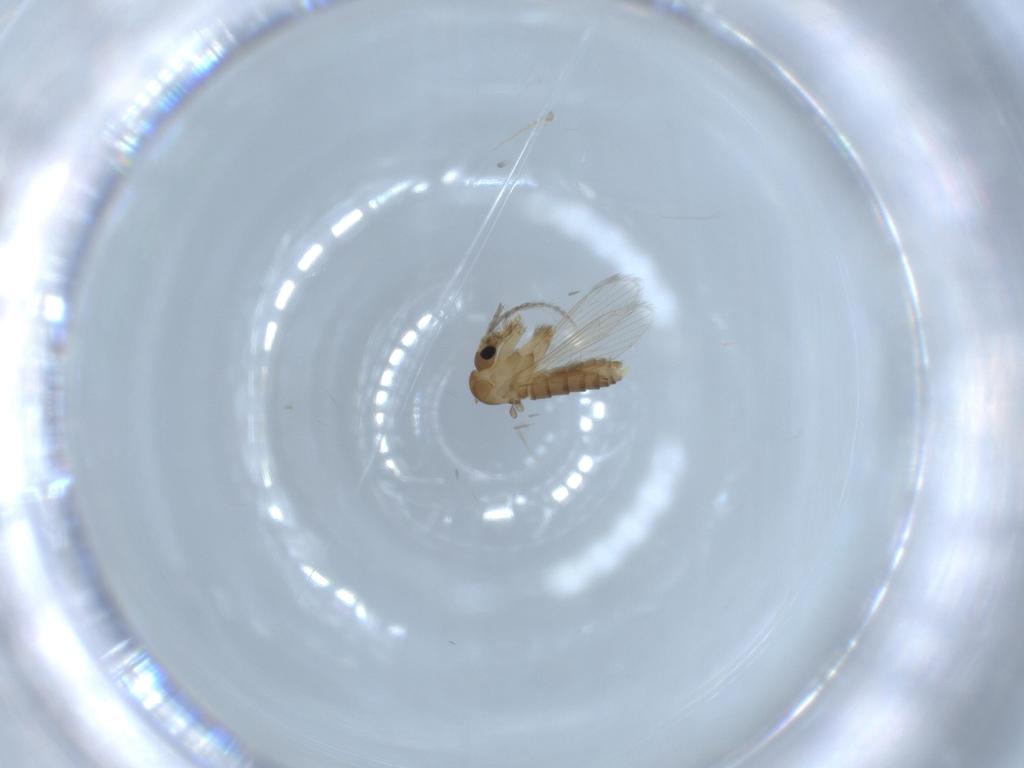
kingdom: Animalia
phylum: Arthropoda
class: Insecta
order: Diptera
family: Psychodidae
